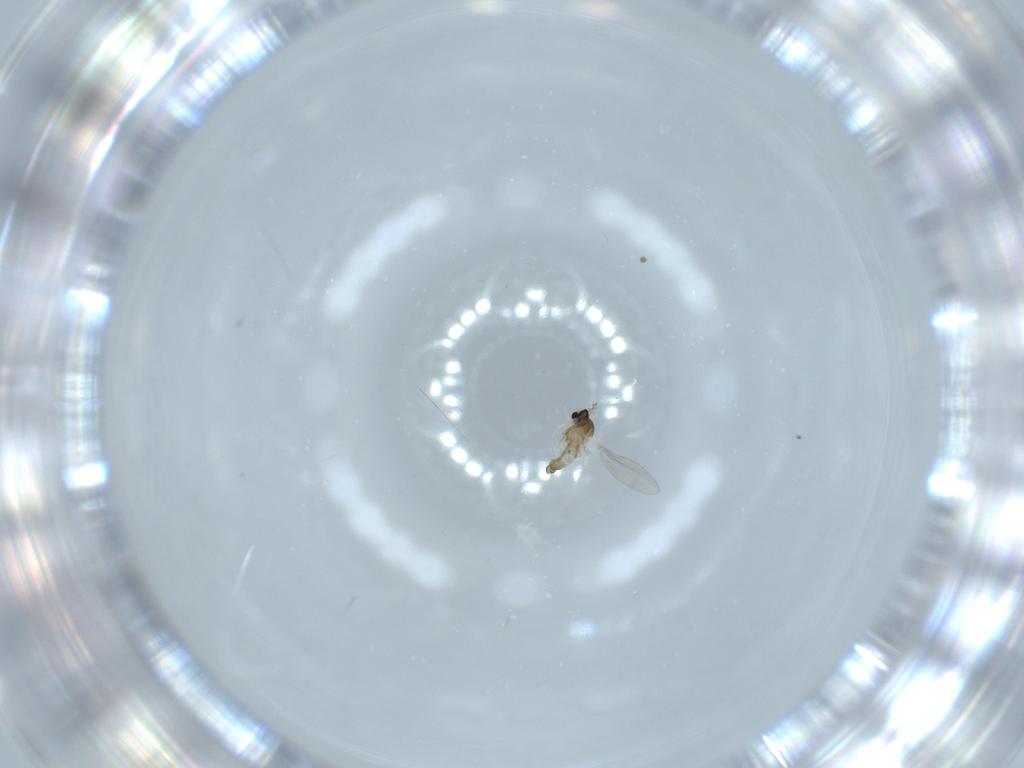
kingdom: Animalia
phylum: Arthropoda
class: Insecta
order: Diptera
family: Cecidomyiidae
